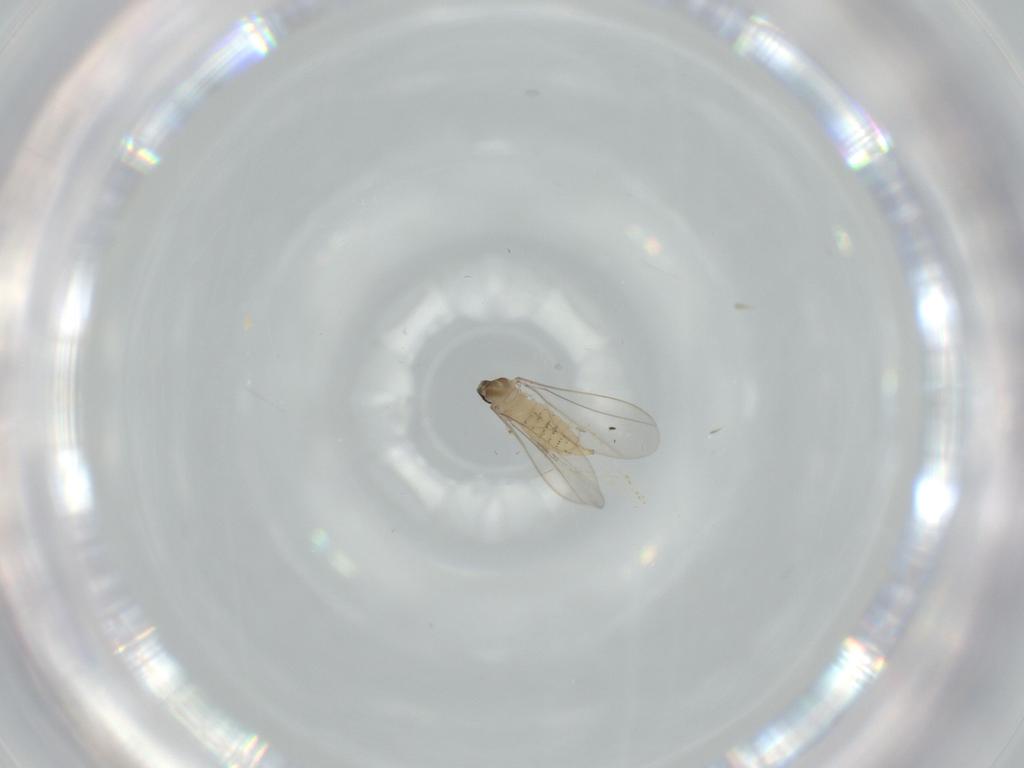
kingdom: Animalia
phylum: Arthropoda
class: Insecta
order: Diptera
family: Cecidomyiidae
